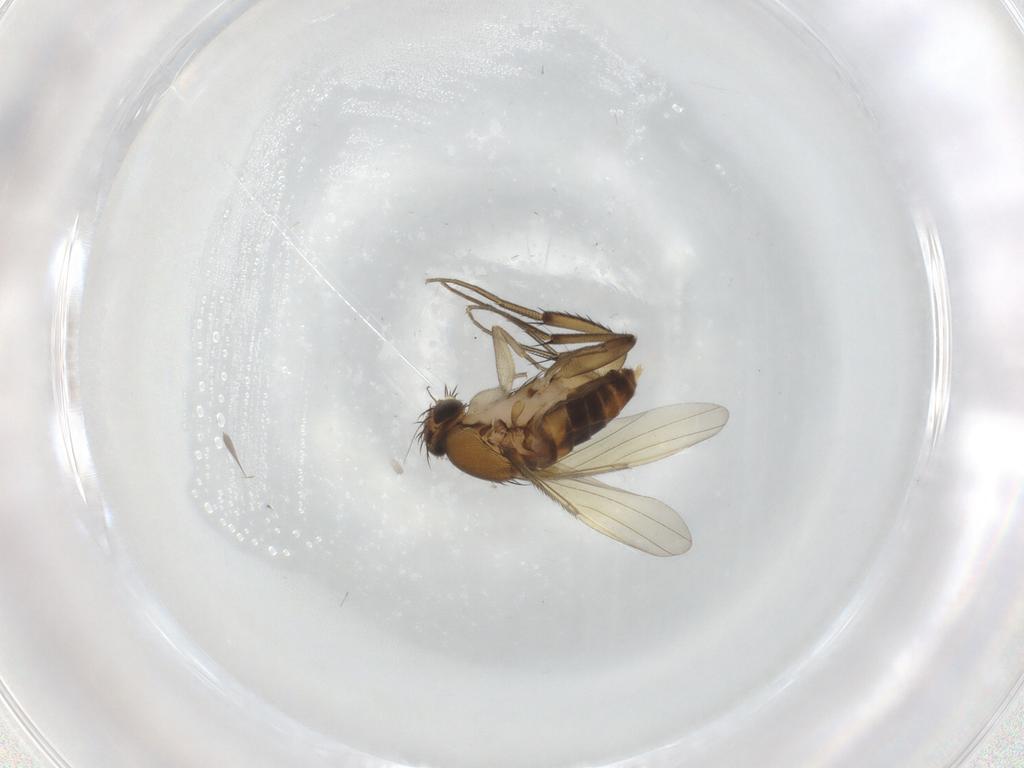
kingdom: Animalia
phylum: Arthropoda
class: Insecta
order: Diptera
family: Phoridae
